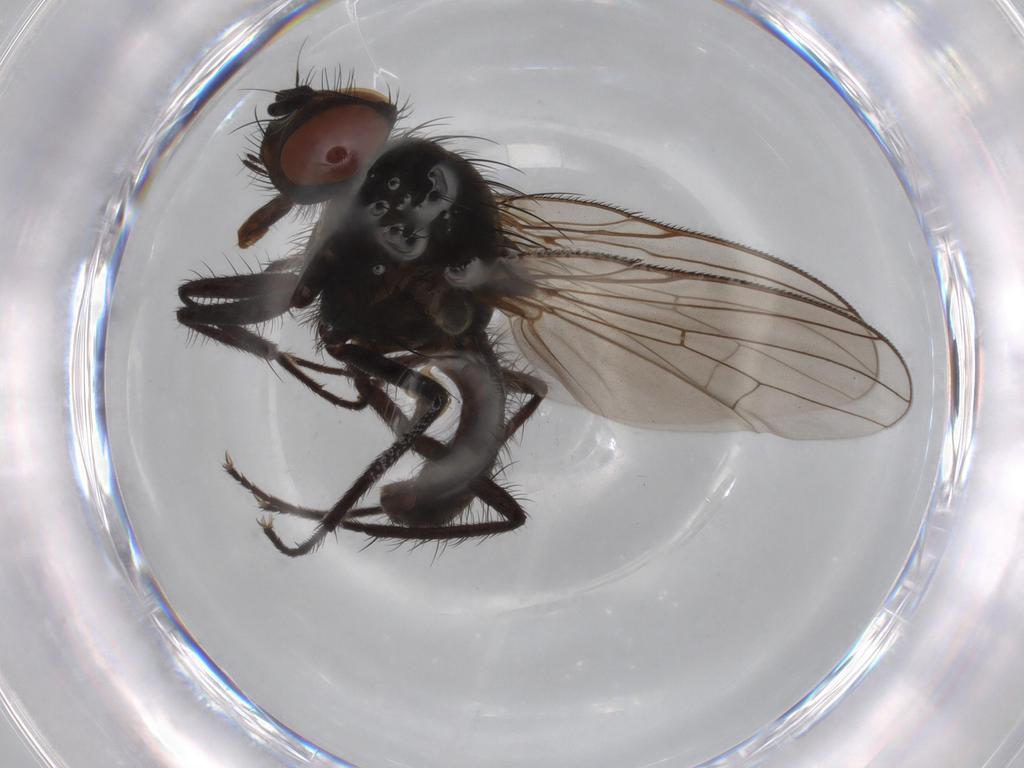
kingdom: Animalia
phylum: Arthropoda
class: Insecta
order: Diptera
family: Anthomyiidae
